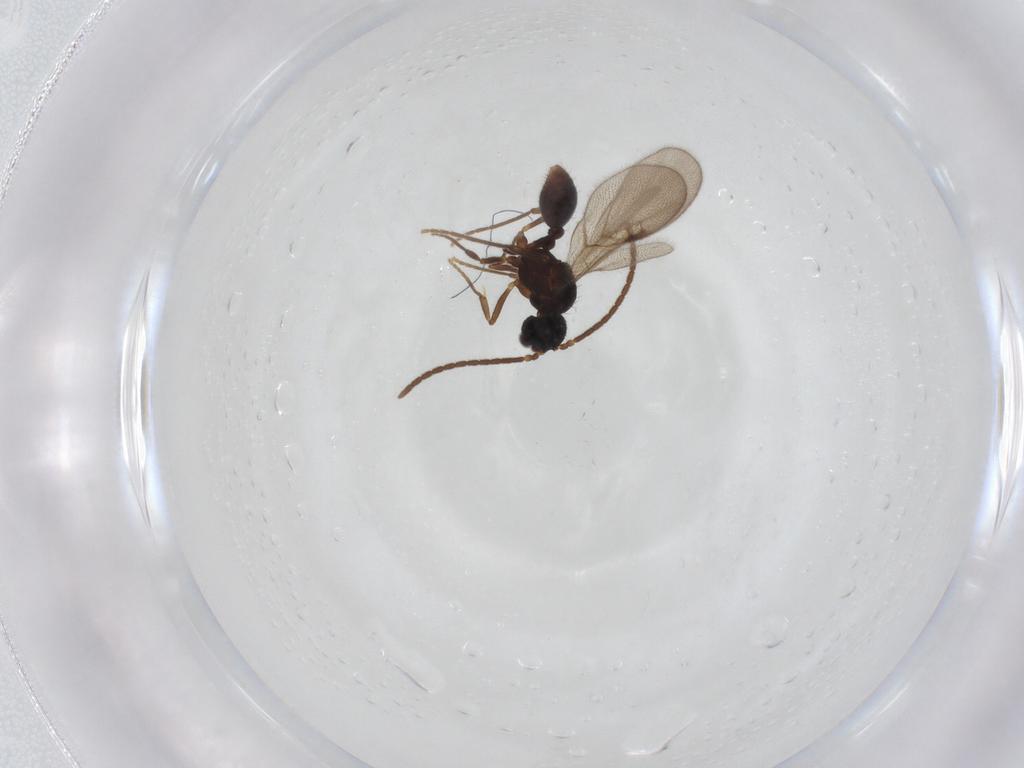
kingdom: Animalia
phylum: Arthropoda
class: Insecta
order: Hymenoptera
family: Formicidae
